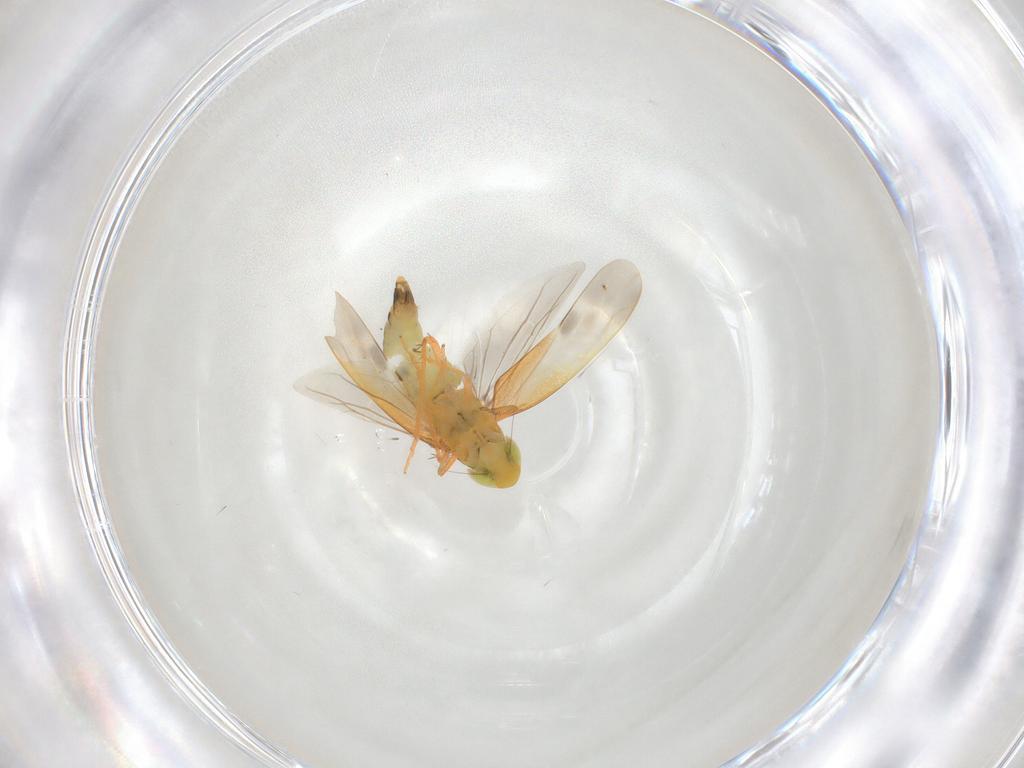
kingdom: Animalia
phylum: Arthropoda
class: Insecta
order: Hemiptera
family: Cicadellidae
